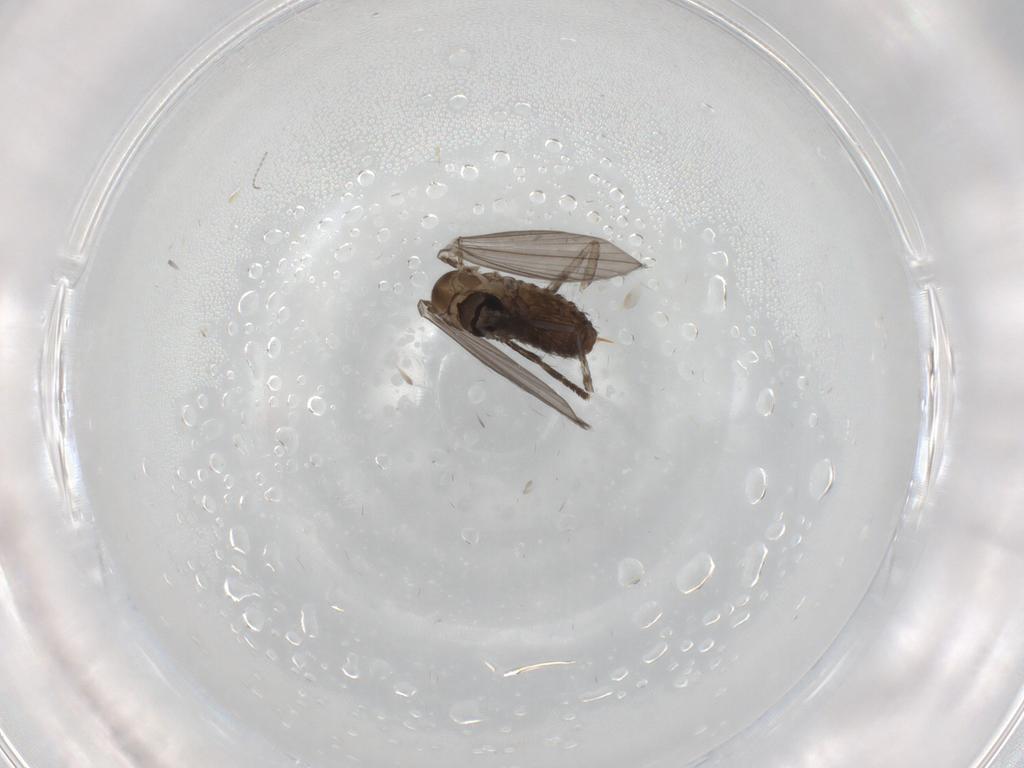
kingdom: Animalia
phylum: Arthropoda
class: Insecta
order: Diptera
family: Psychodidae
